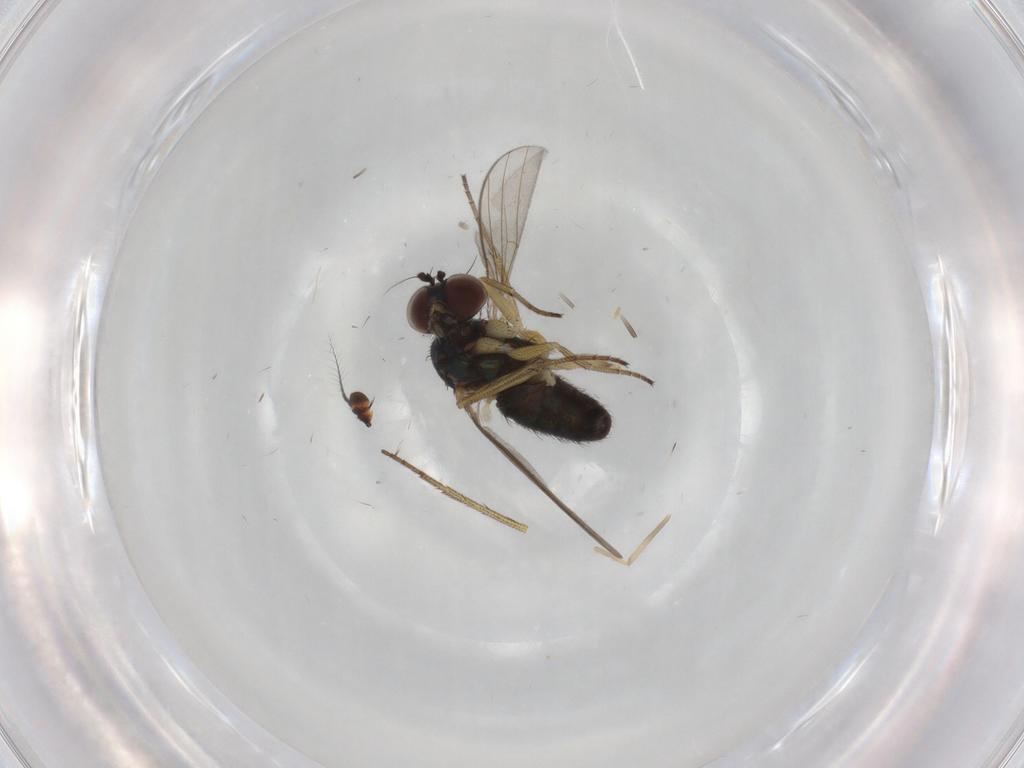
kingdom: Animalia
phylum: Arthropoda
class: Insecta
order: Diptera
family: Dolichopodidae
